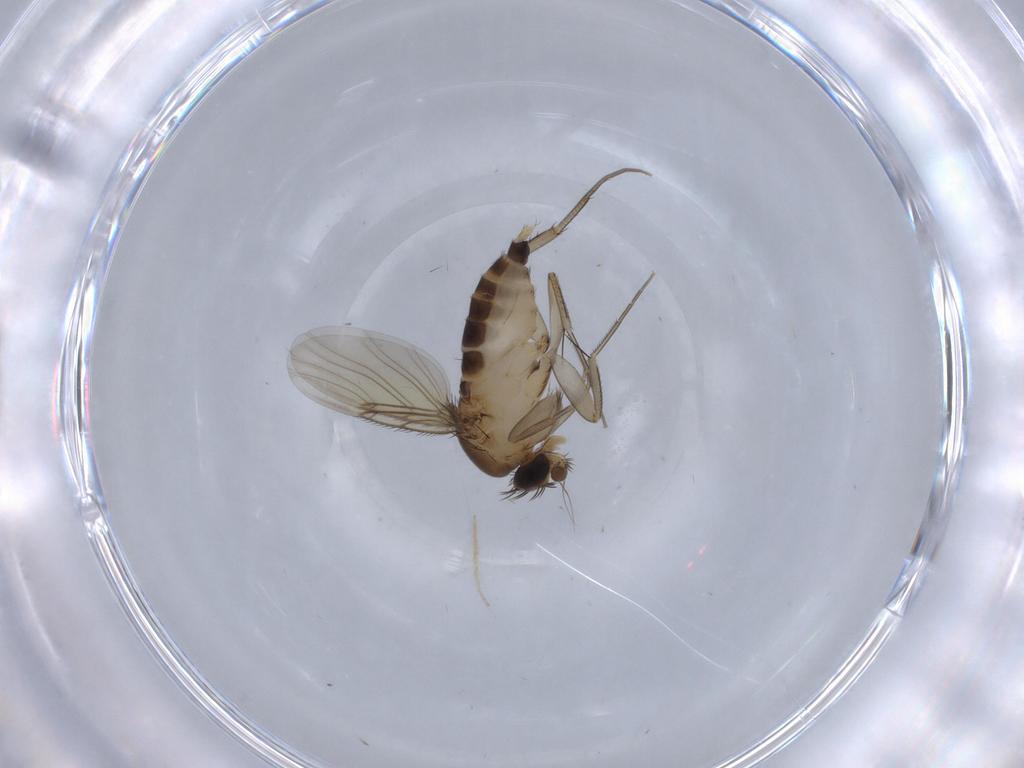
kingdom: Animalia
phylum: Arthropoda
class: Insecta
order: Diptera
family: Phoridae
